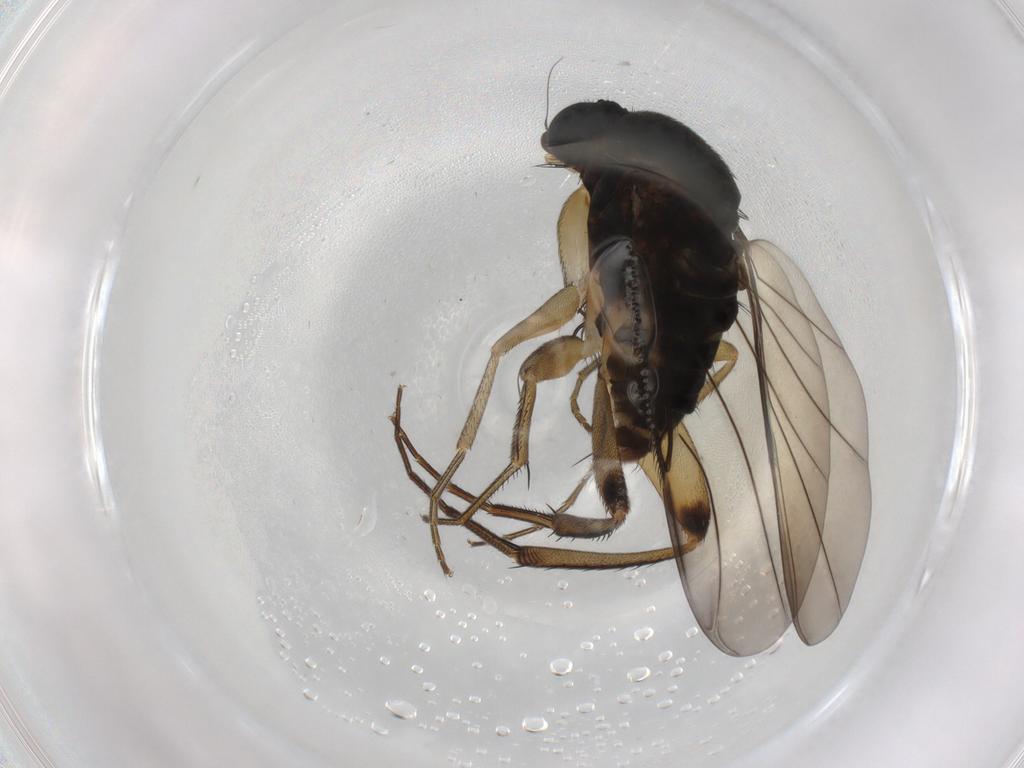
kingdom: Animalia
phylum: Arthropoda
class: Insecta
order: Diptera
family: Phoridae
